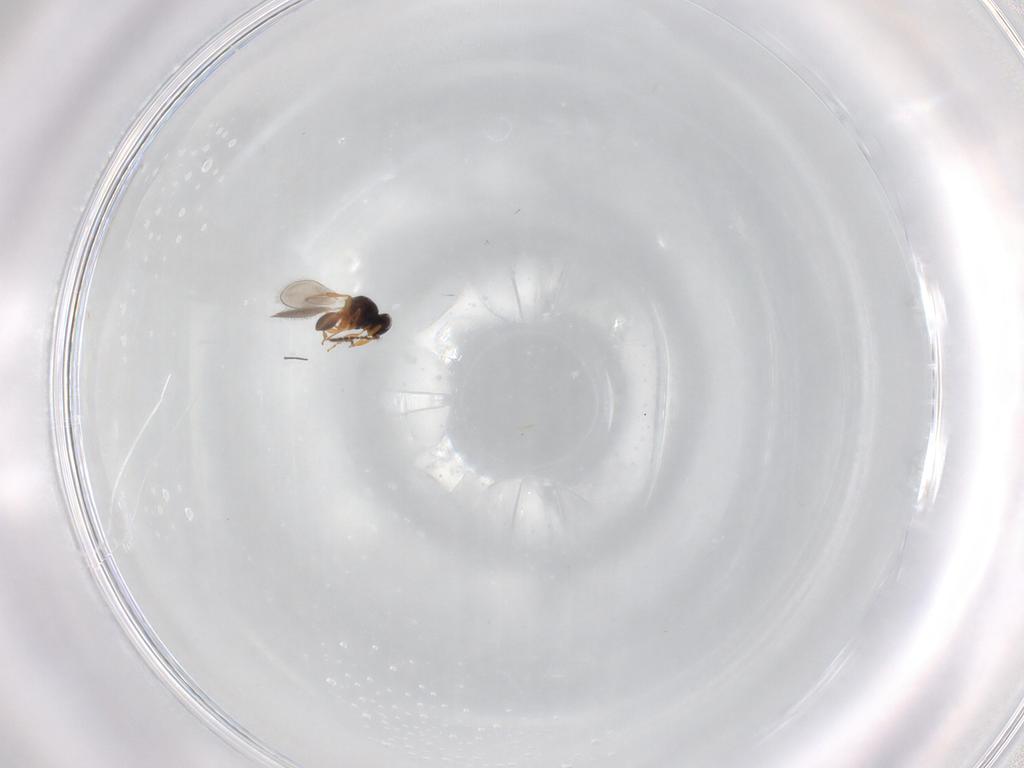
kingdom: Animalia
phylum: Arthropoda
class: Insecta
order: Hymenoptera
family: Platygastridae
